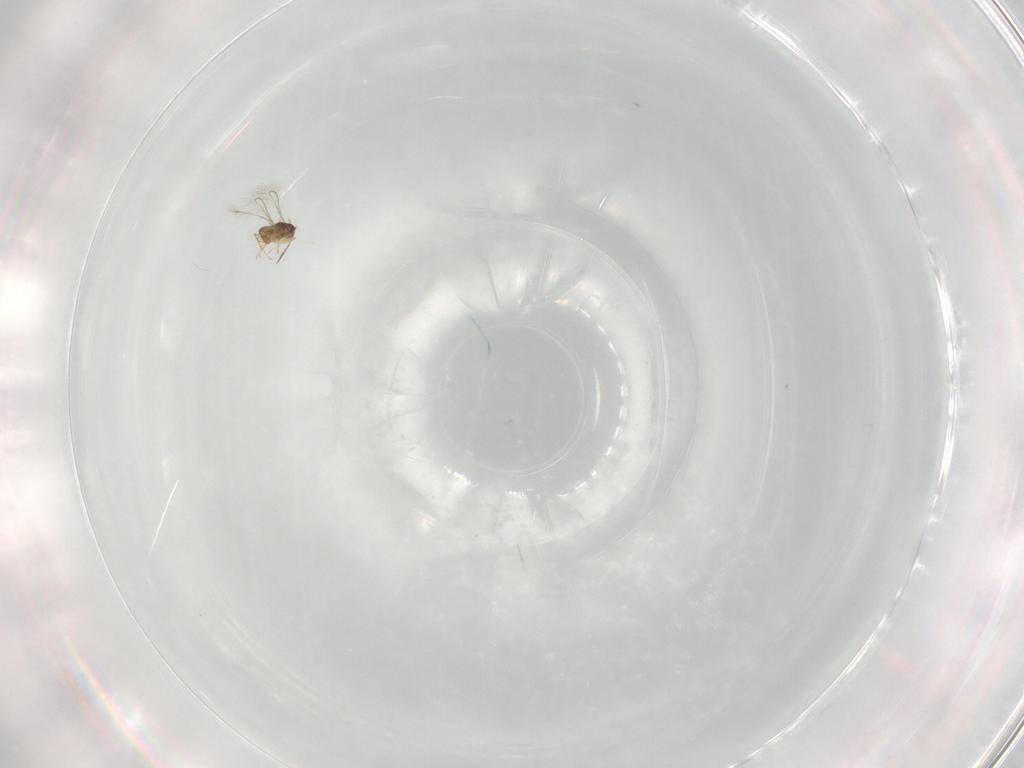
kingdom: Animalia
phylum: Arthropoda
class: Insecta
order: Hymenoptera
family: Mymaridae
